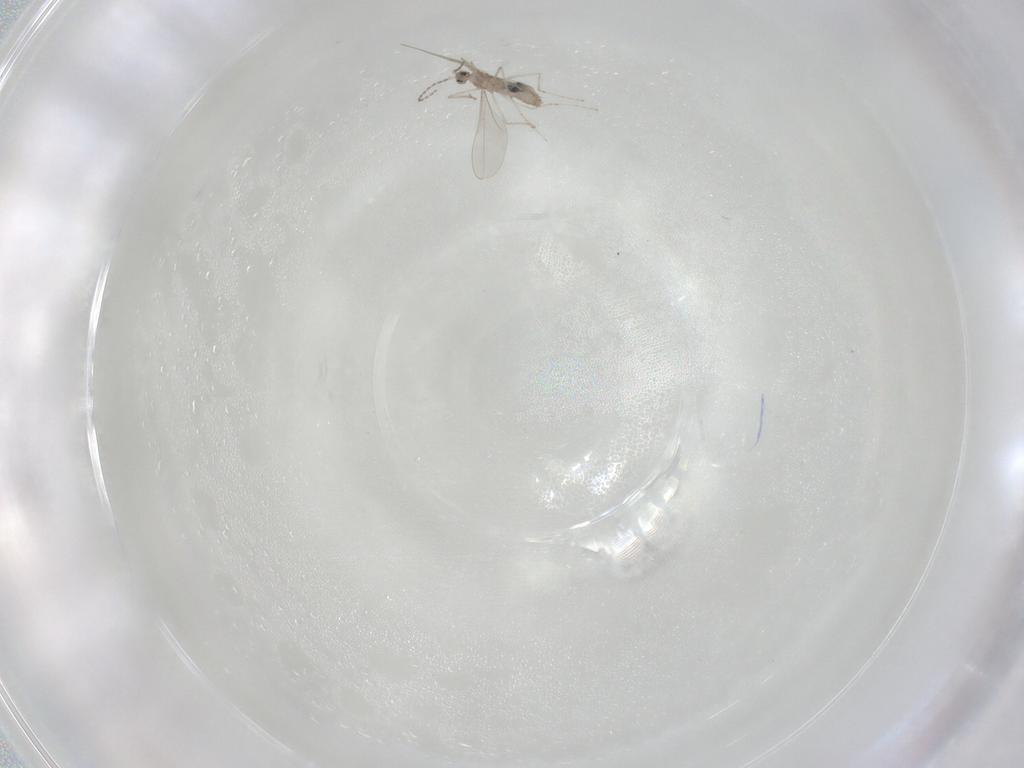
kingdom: Animalia
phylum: Arthropoda
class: Insecta
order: Diptera
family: Cecidomyiidae
